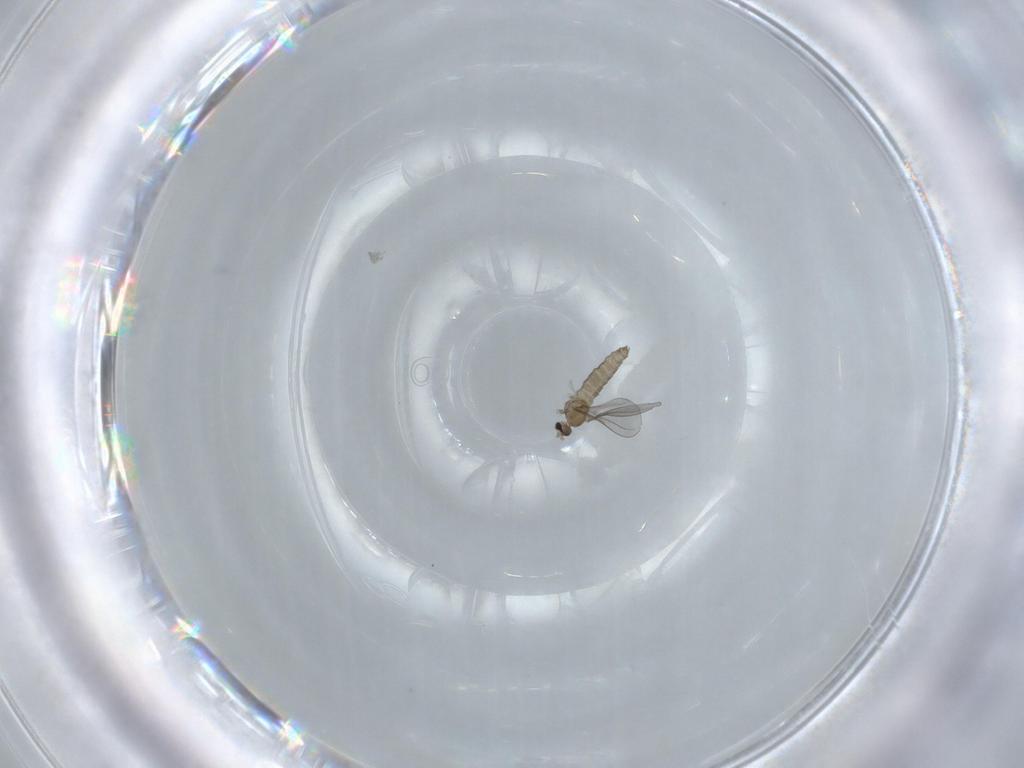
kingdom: Animalia
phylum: Arthropoda
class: Insecta
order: Diptera
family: Cecidomyiidae
